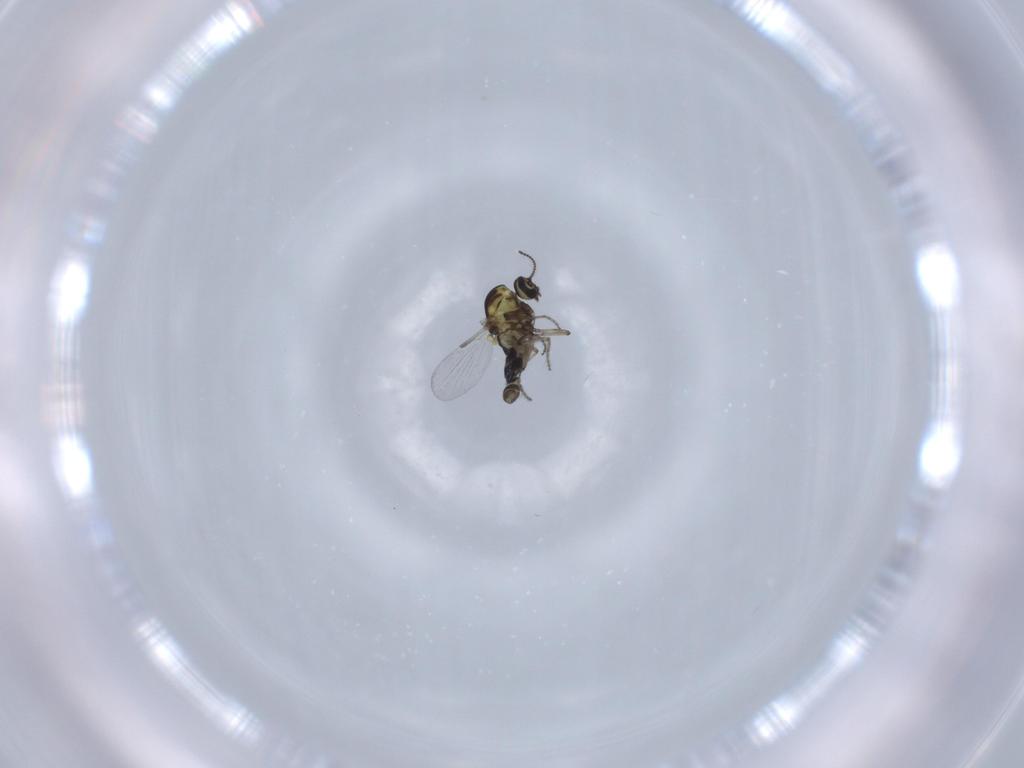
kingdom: Animalia
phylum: Arthropoda
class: Insecta
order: Diptera
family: Ceratopogonidae
